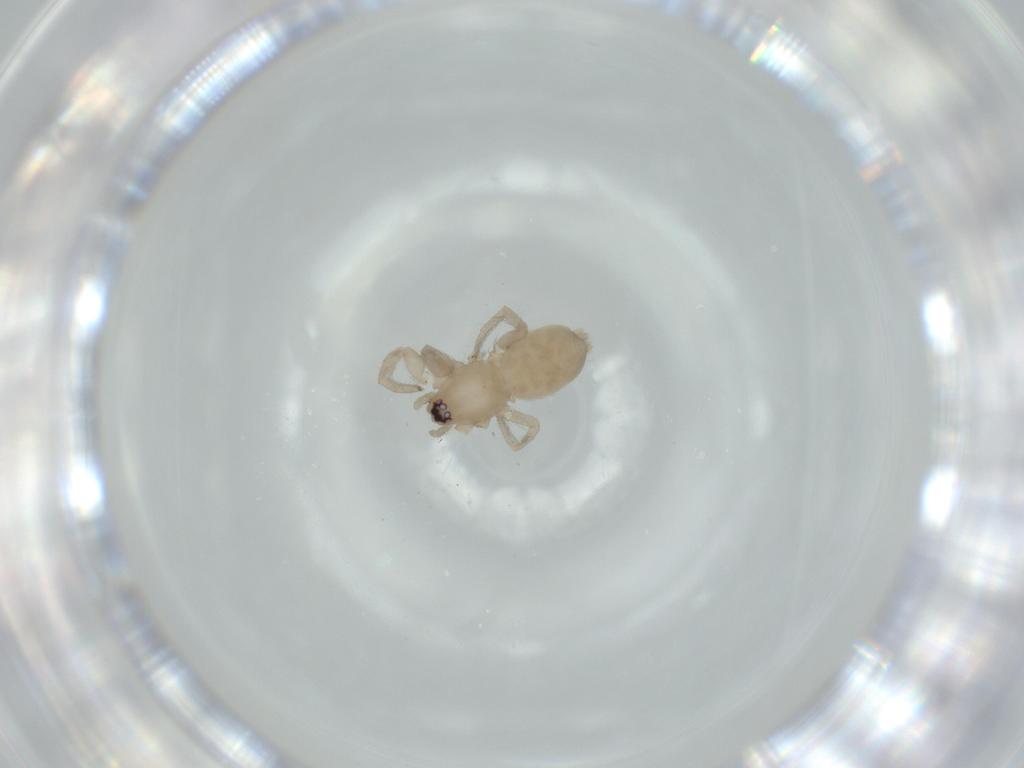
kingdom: Animalia
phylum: Arthropoda
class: Arachnida
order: Araneae
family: Gnaphosidae
